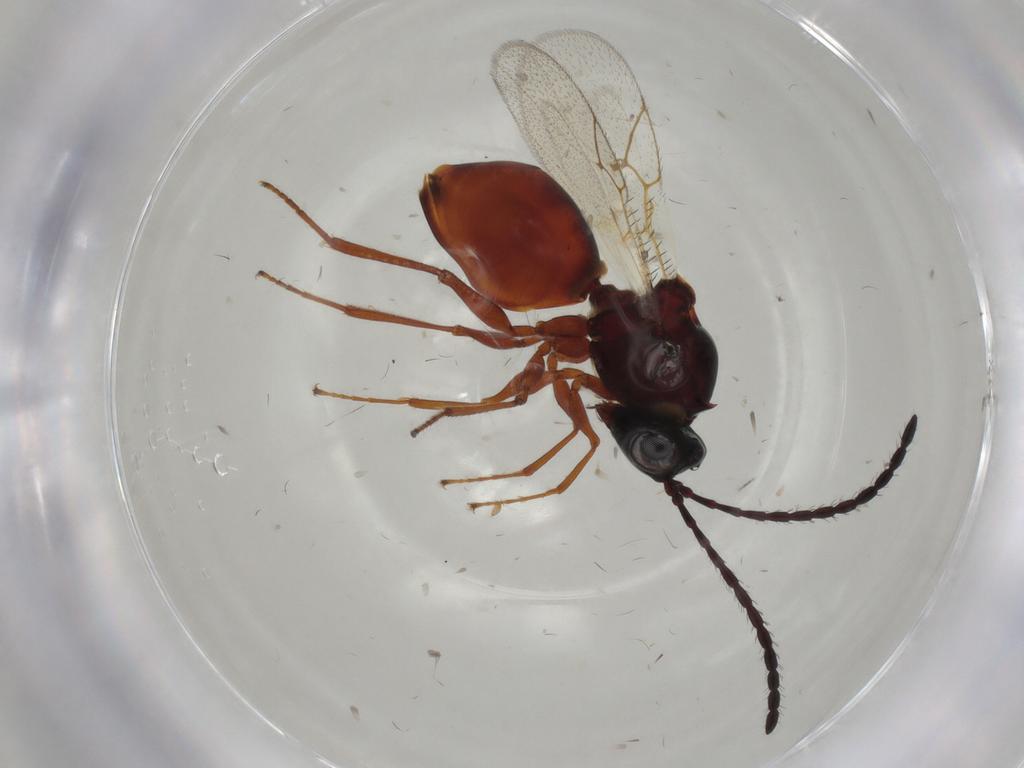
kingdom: Animalia
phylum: Arthropoda
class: Insecta
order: Hymenoptera
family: Figitidae
